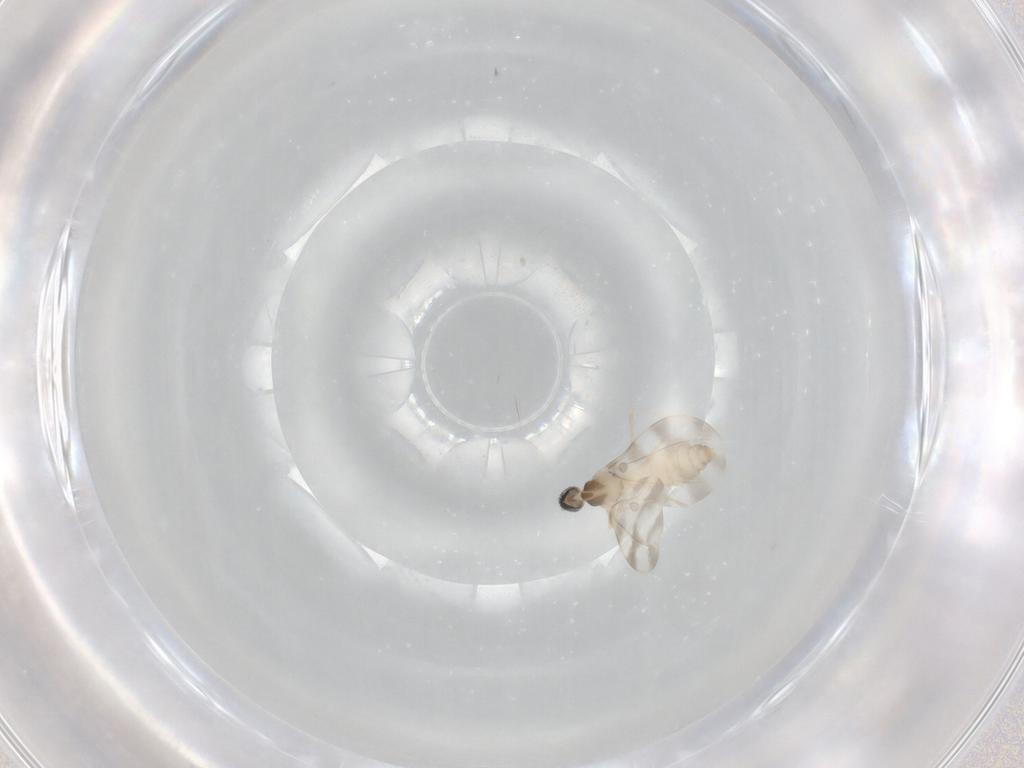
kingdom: Animalia
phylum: Arthropoda
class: Insecta
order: Diptera
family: Cecidomyiidae
